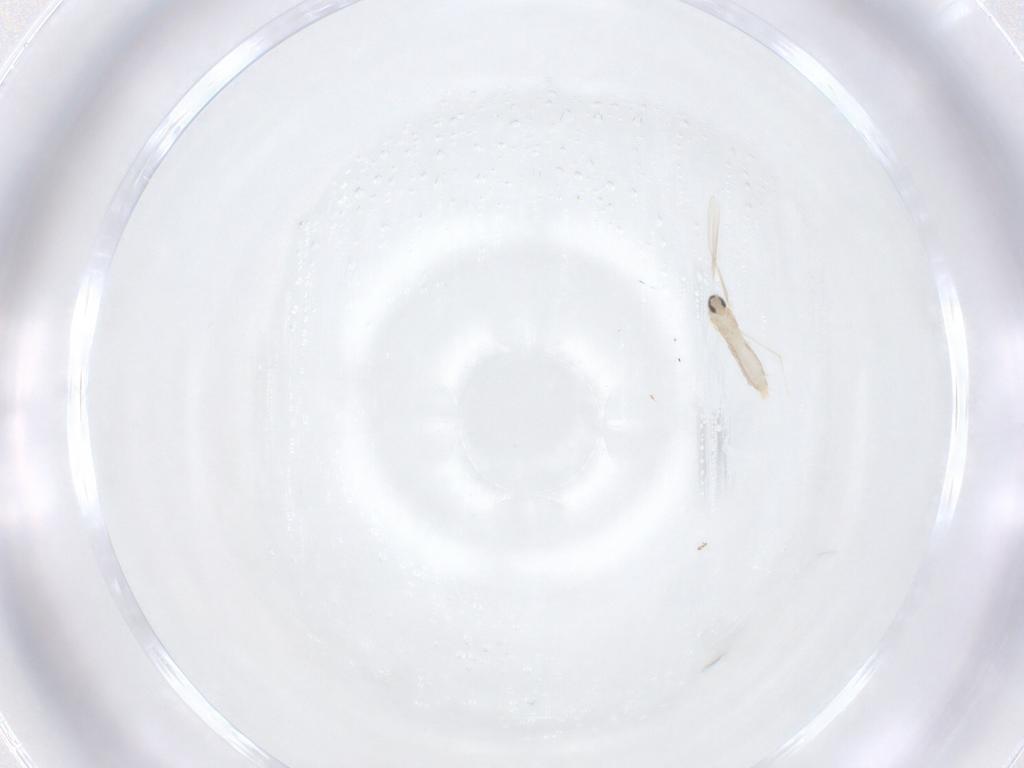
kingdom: Animalia
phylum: Arthropoda
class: Insecta
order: Diptera
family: Cecidomyiidae
